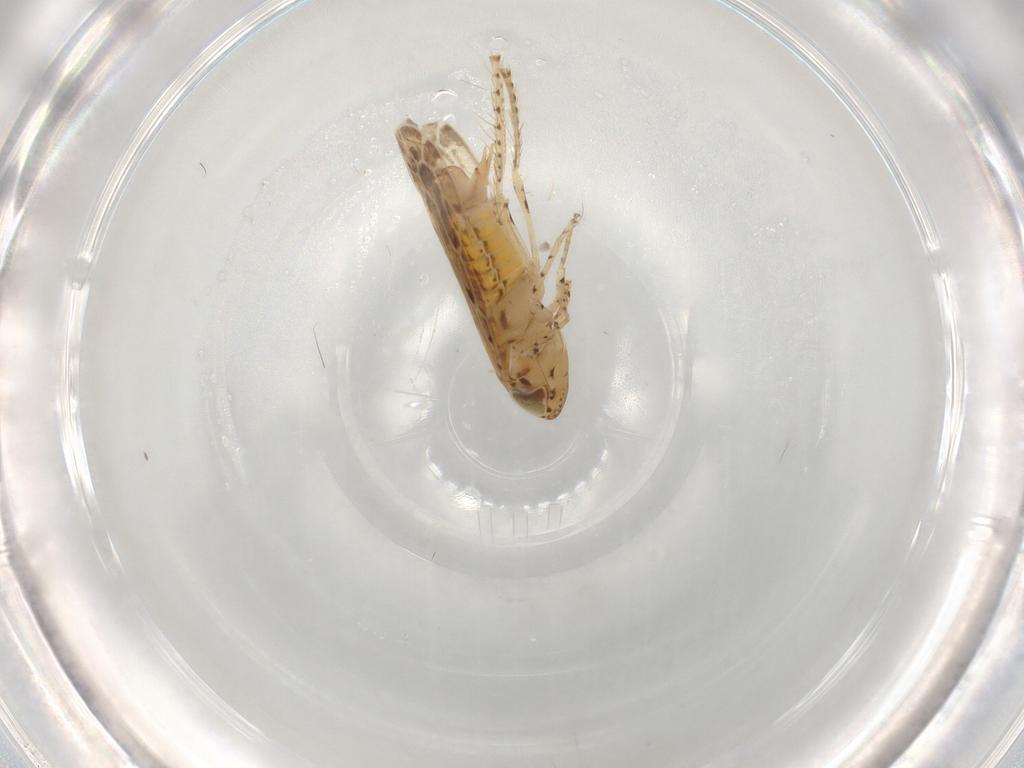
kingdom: Animalia
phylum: Arthropoda
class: Insecta
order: Hemiptera
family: Cicadellidae
